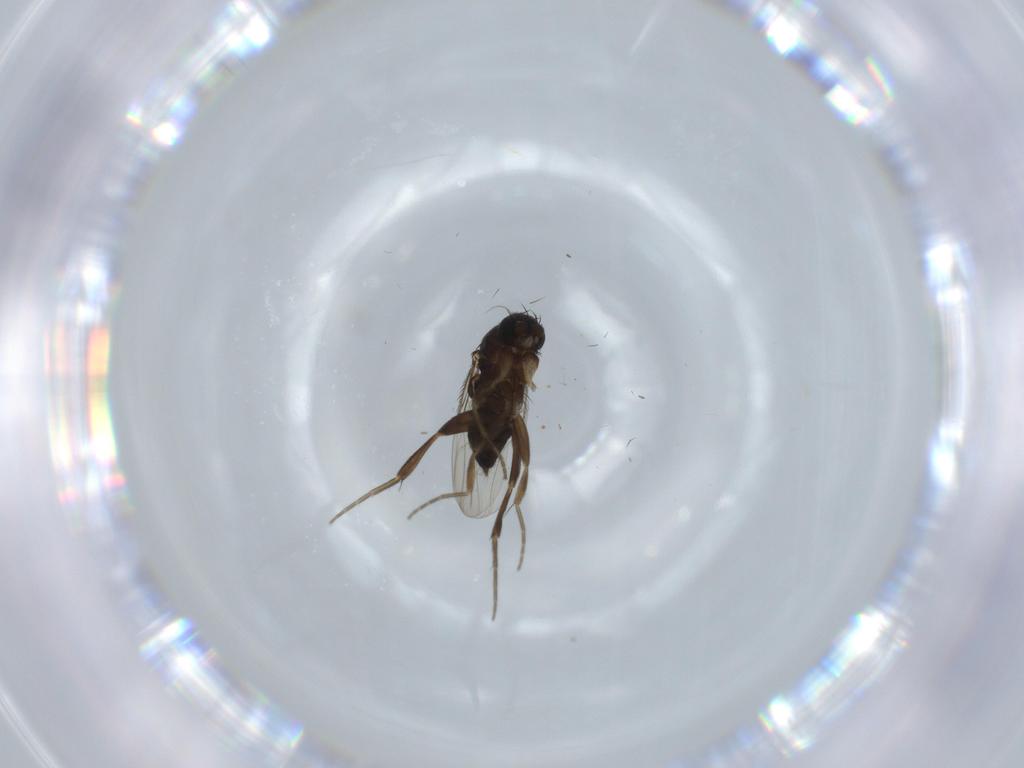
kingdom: Animalia
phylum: Arthropoda
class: Insecta
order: Diptera
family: Phoridae
